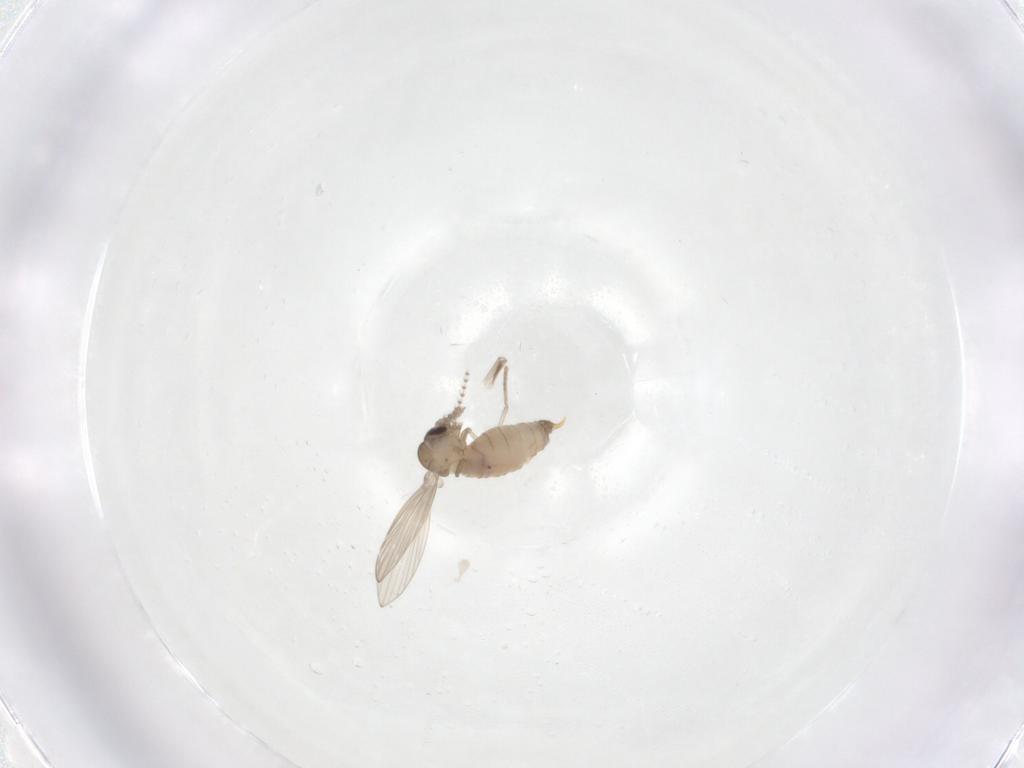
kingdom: Animalia
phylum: Arthropoda
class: Insecta
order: Diptera
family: Psychodidae
